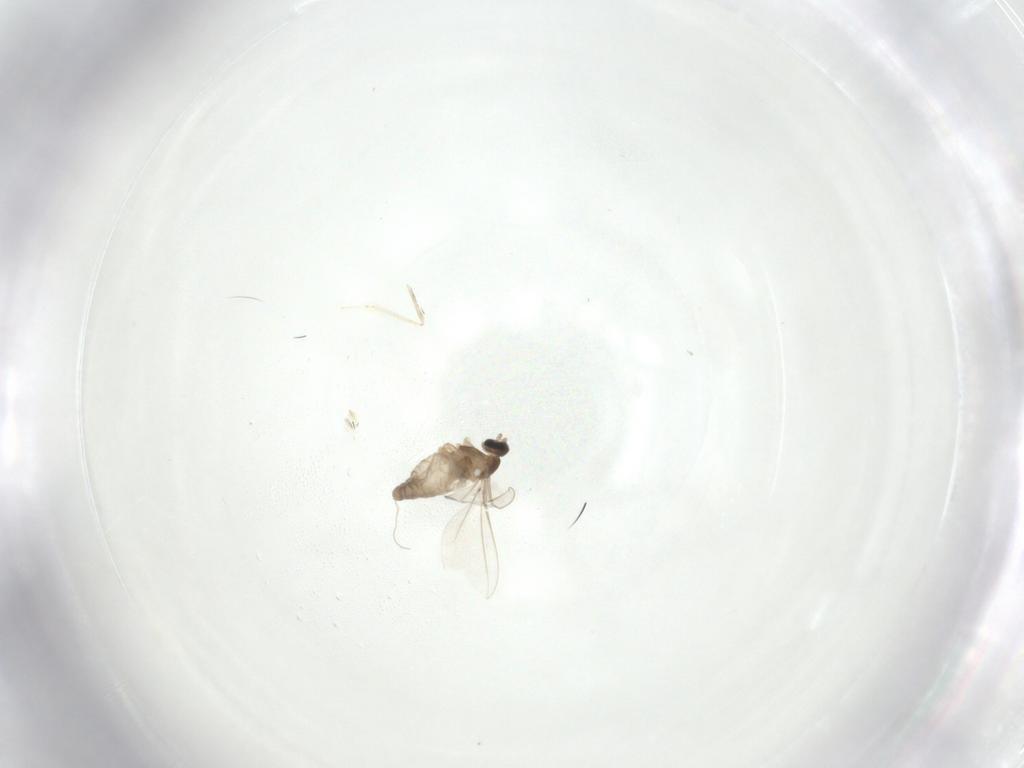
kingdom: Animalia
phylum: Arthropoda
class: Insecta
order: Diptera
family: Cecidomyiidae
